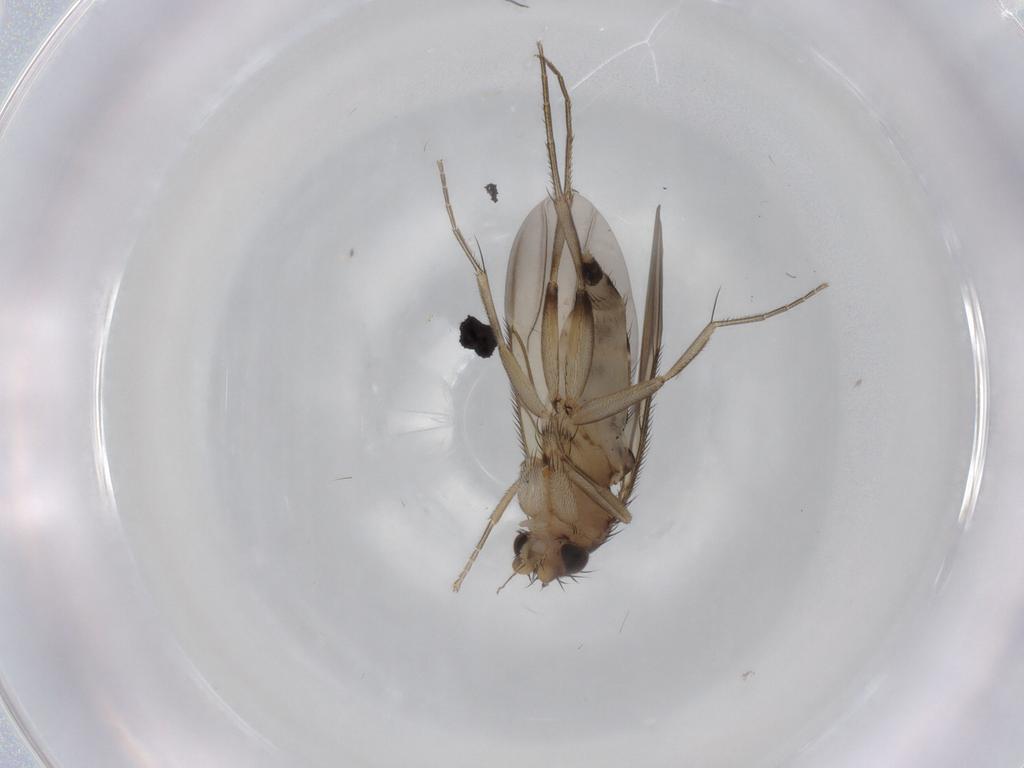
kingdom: Animalia
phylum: Arthropoda
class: Insecta
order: Diptera
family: Phoridae
